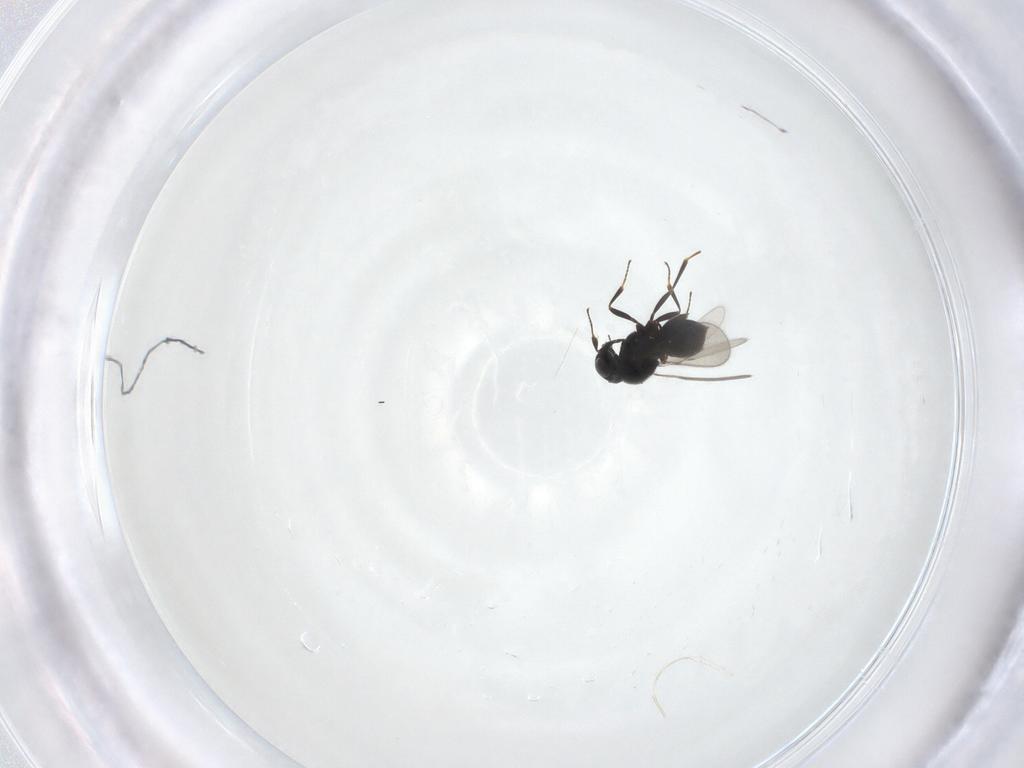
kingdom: Animalia
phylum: Arthropoda
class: Insecta
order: Hymenoptera
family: Scelionidae
